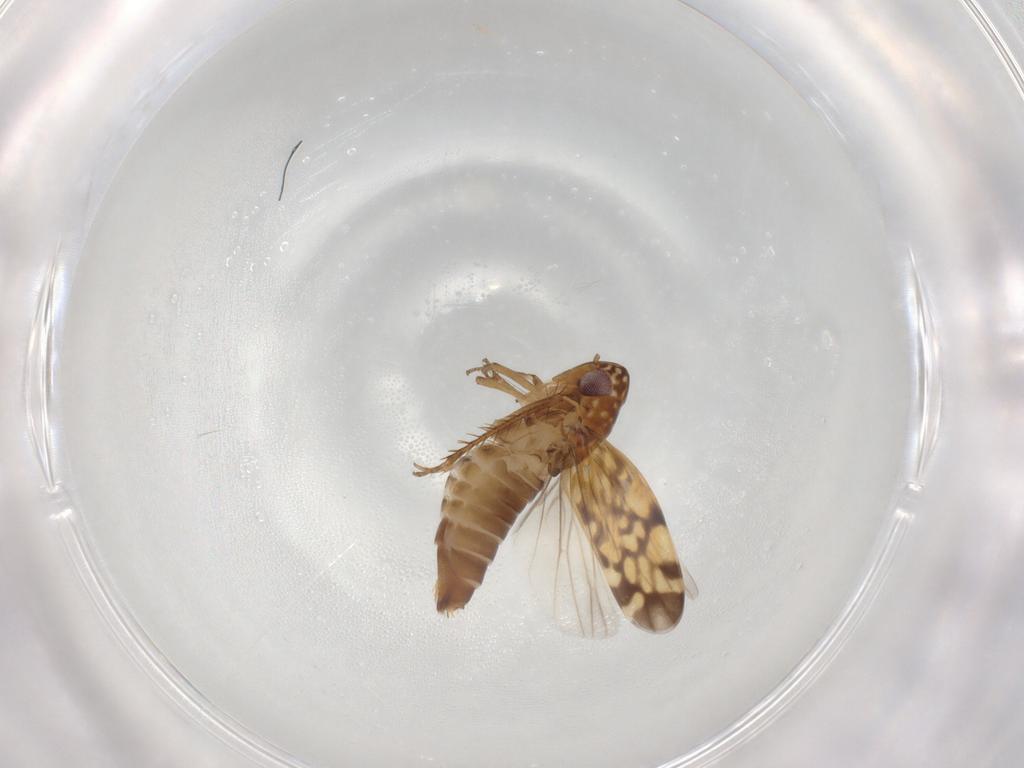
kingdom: Animalia
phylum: Arthropoda
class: Insecta
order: Hemiptera
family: Cicadellidae
